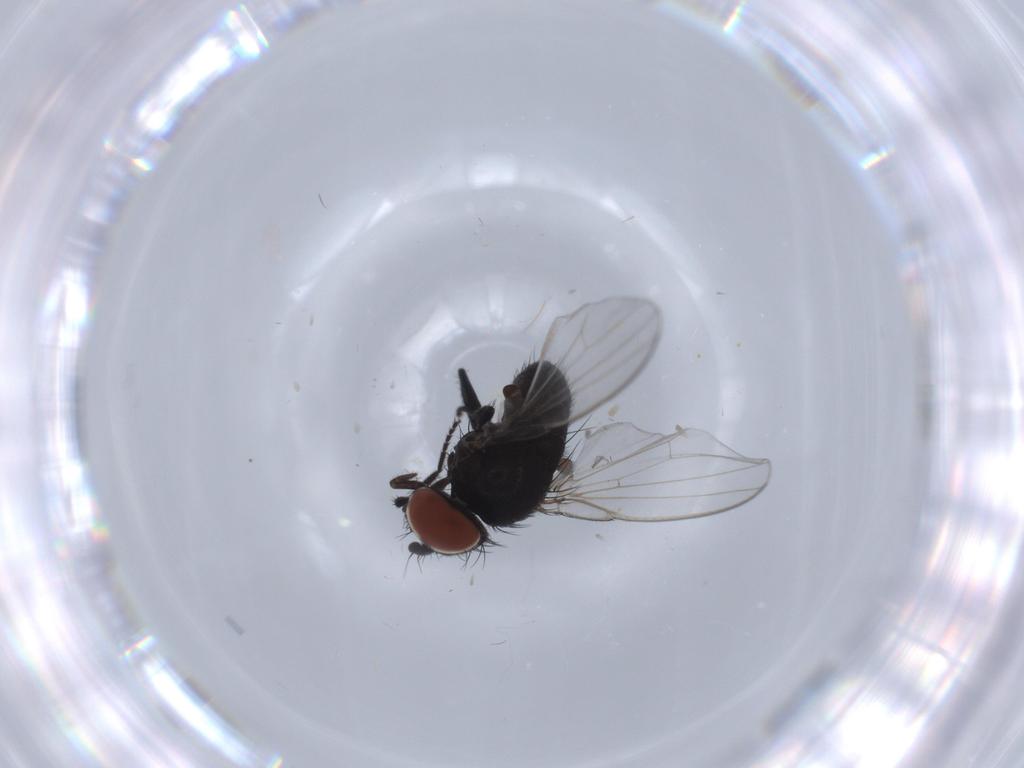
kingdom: Animalia
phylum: Arthropoda
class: Insecta
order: Diptera
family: Milichiidae
